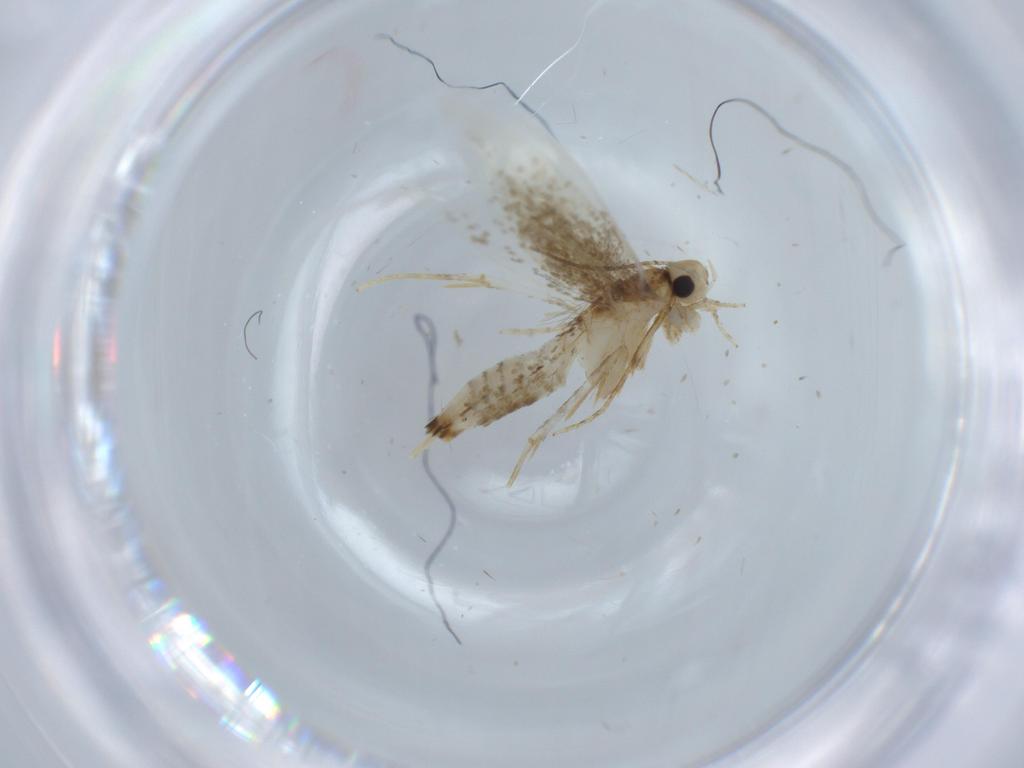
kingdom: Animalia
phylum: Arthropoda
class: Insecta
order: Lepidoptera
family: Tineidae
